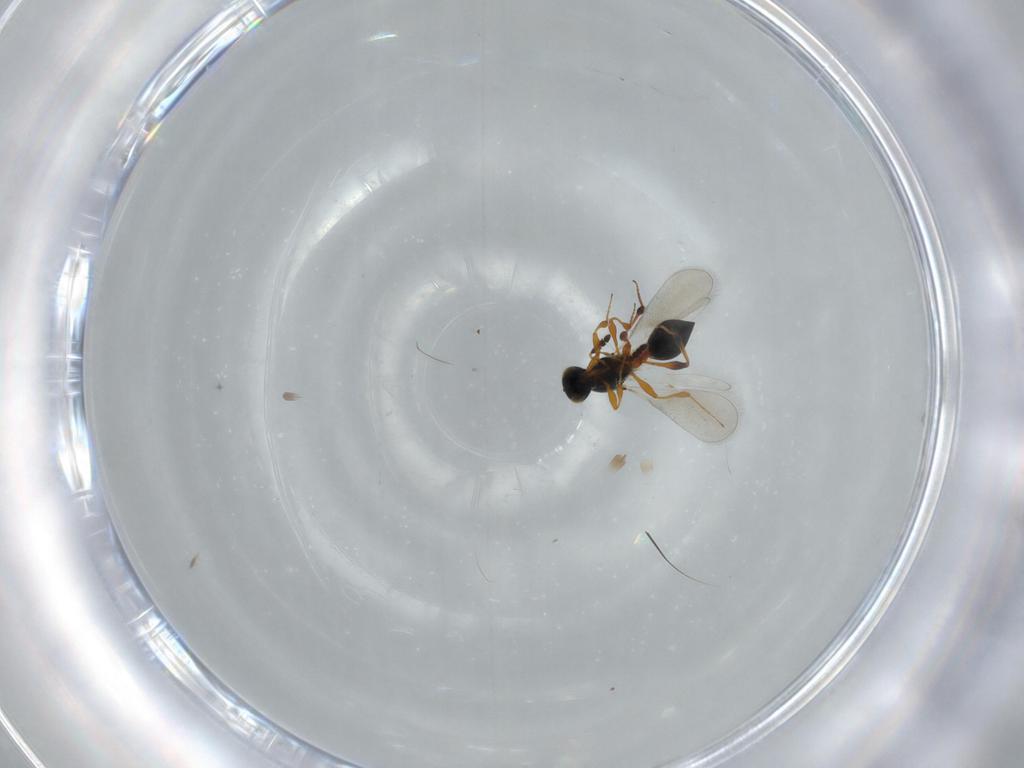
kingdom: Animalia
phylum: Arthropoda
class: Insecta
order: Hymenoptera
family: Platygastridae
